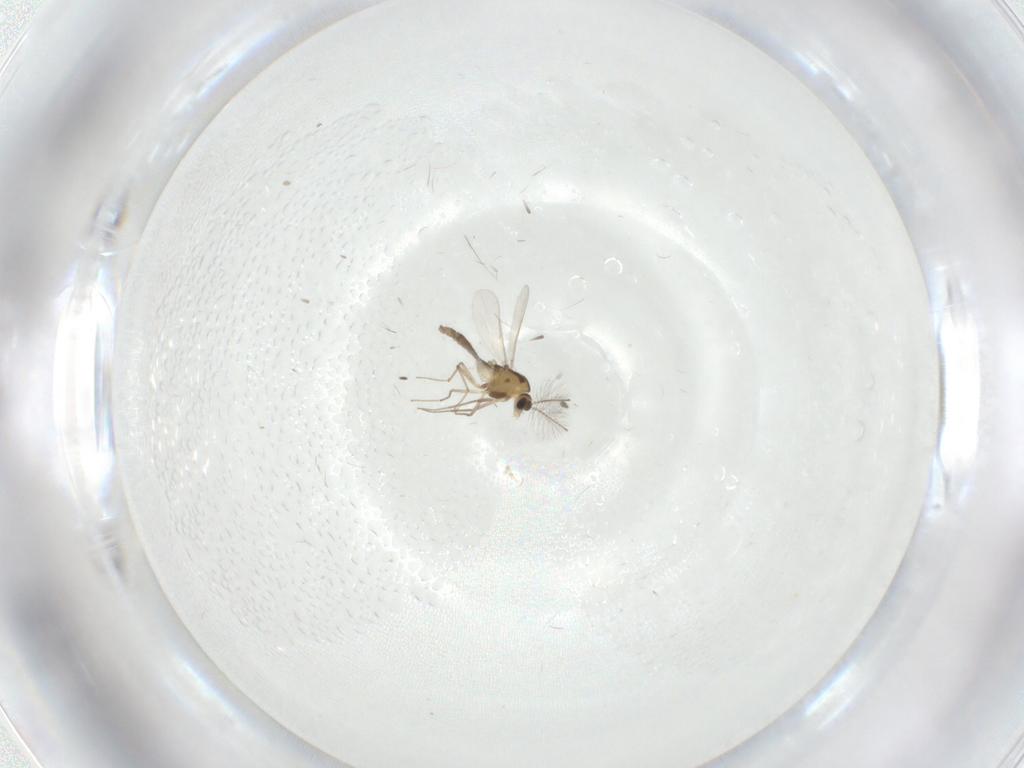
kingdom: Animalia
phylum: Arthropoda
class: Insecta
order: Diptera
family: Chironomidae
